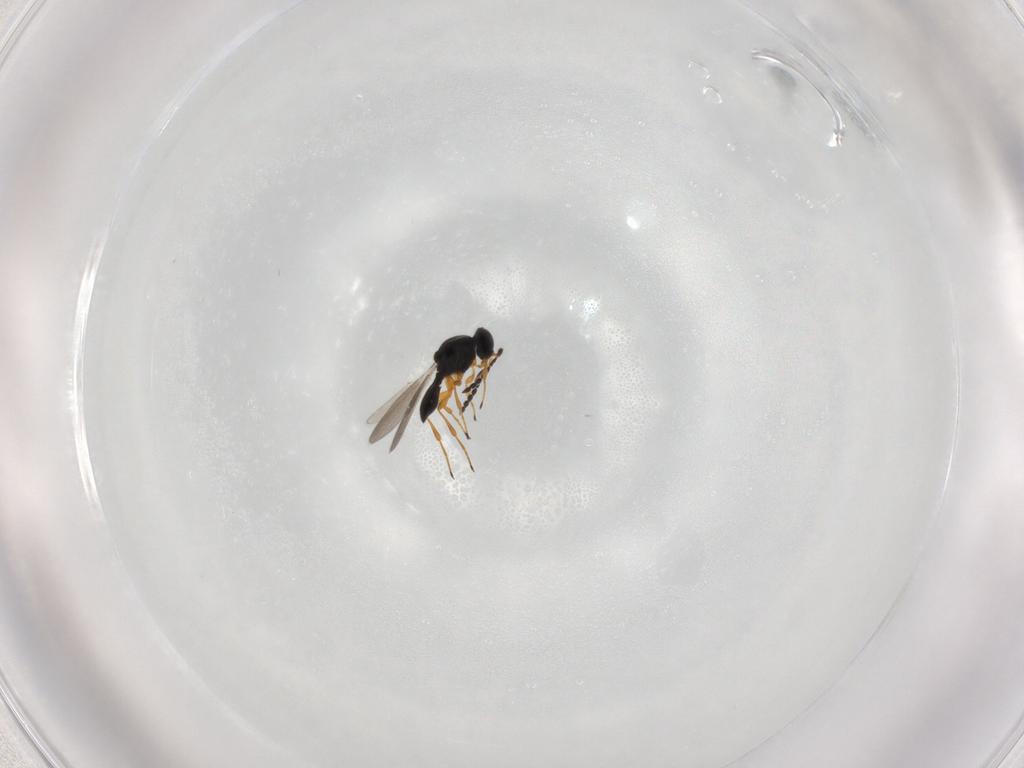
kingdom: Animalia
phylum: Arthropoda
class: Insecta
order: Hymenoptera
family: Platygastridae
